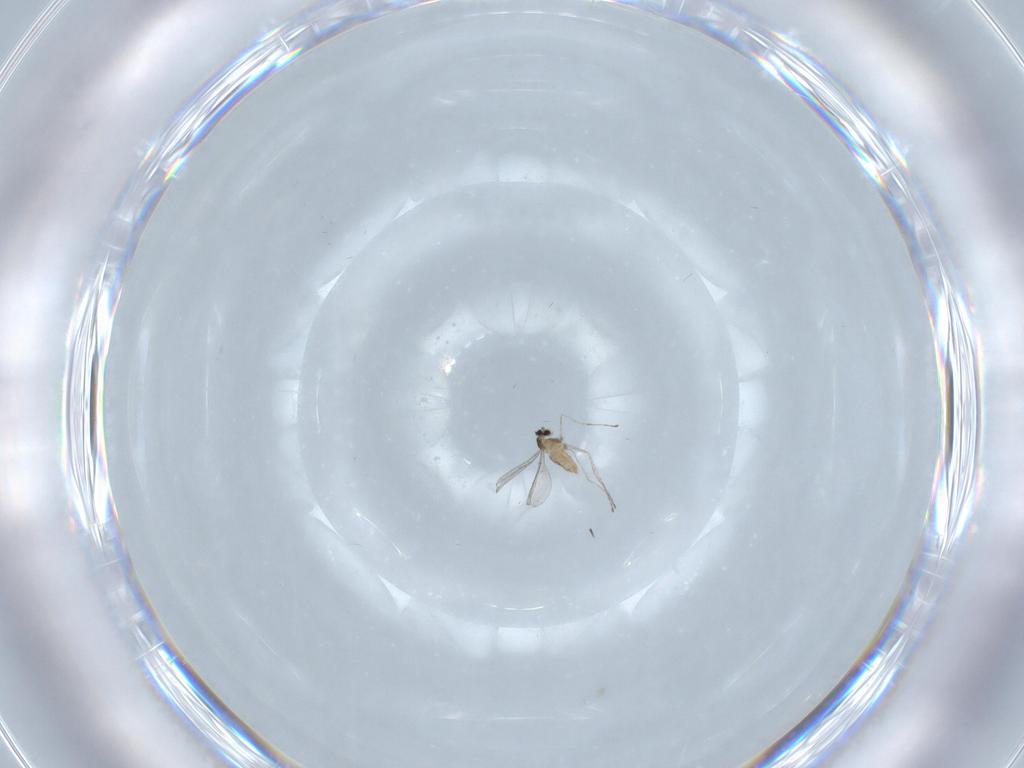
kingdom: Animalia
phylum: Arthropoda
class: Insecta
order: Diptera
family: Cecidomyiidae
